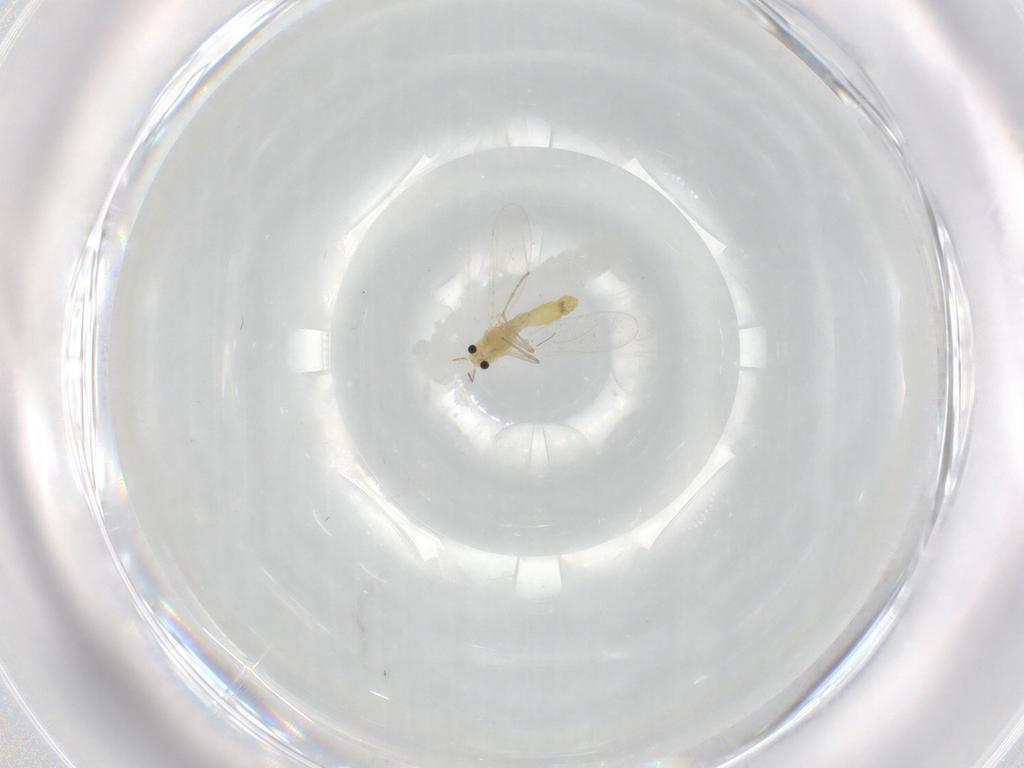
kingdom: Animalia
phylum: Arthropoda
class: Insecta
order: Diptera
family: Chironomidae
